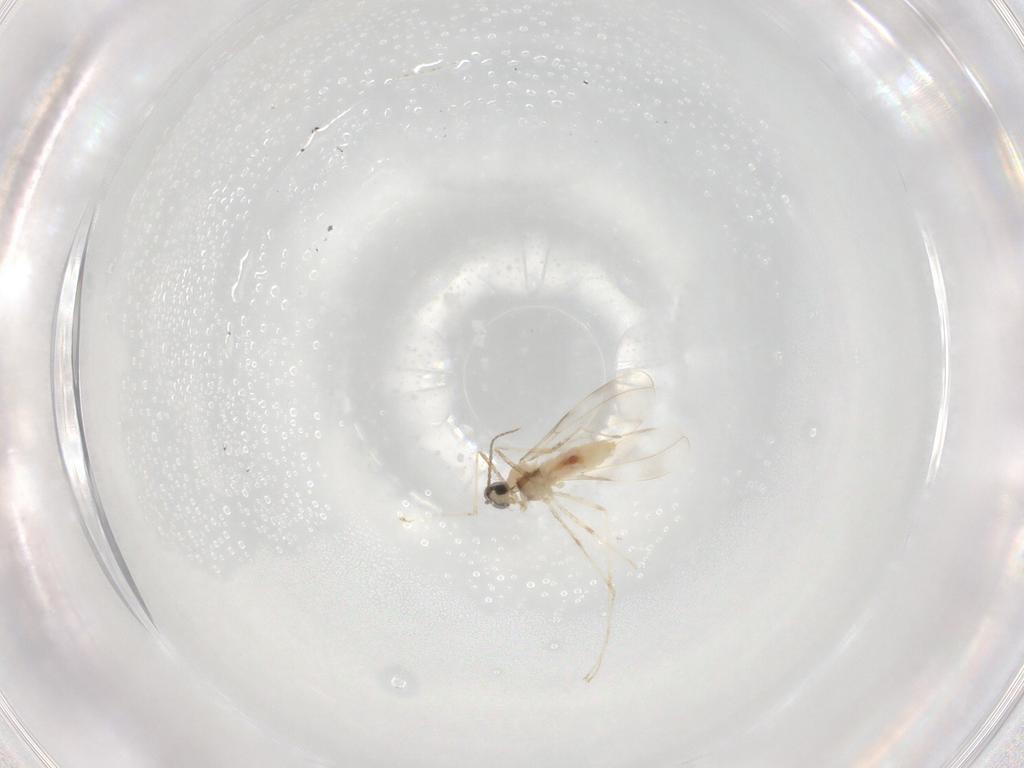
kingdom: Animalia
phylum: Arthropoda
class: Insecta
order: Diptera
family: Cecidomyiidae
